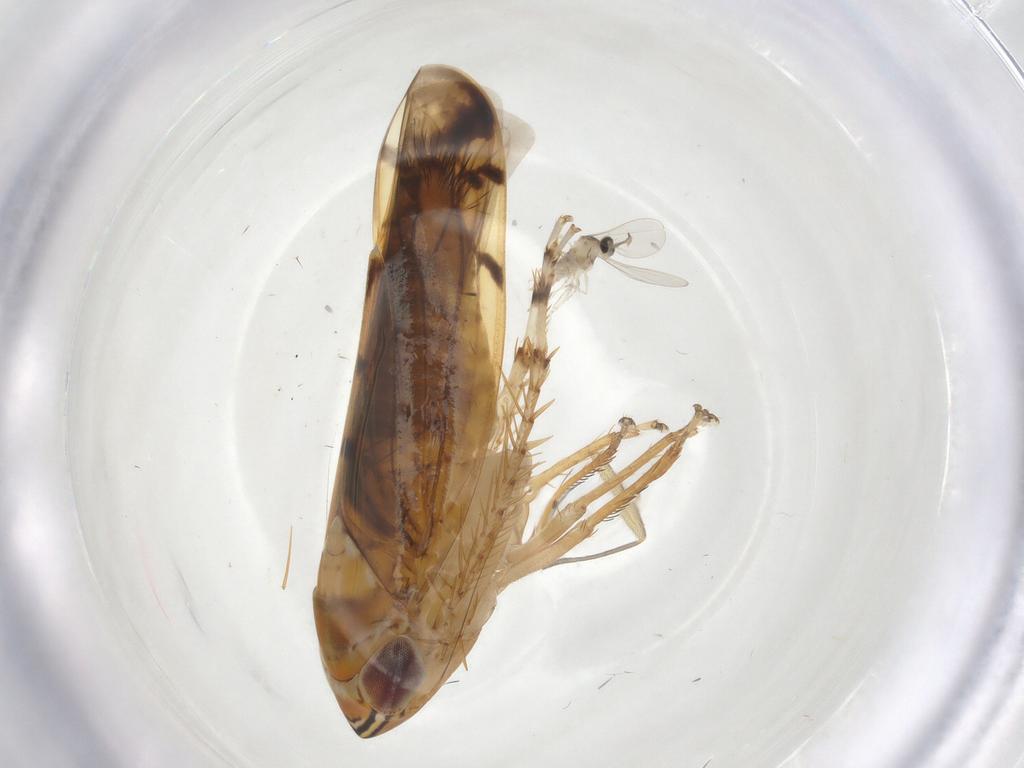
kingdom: Animalia
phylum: Arthropoda
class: Insecta
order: Diptera
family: Sciaridae
